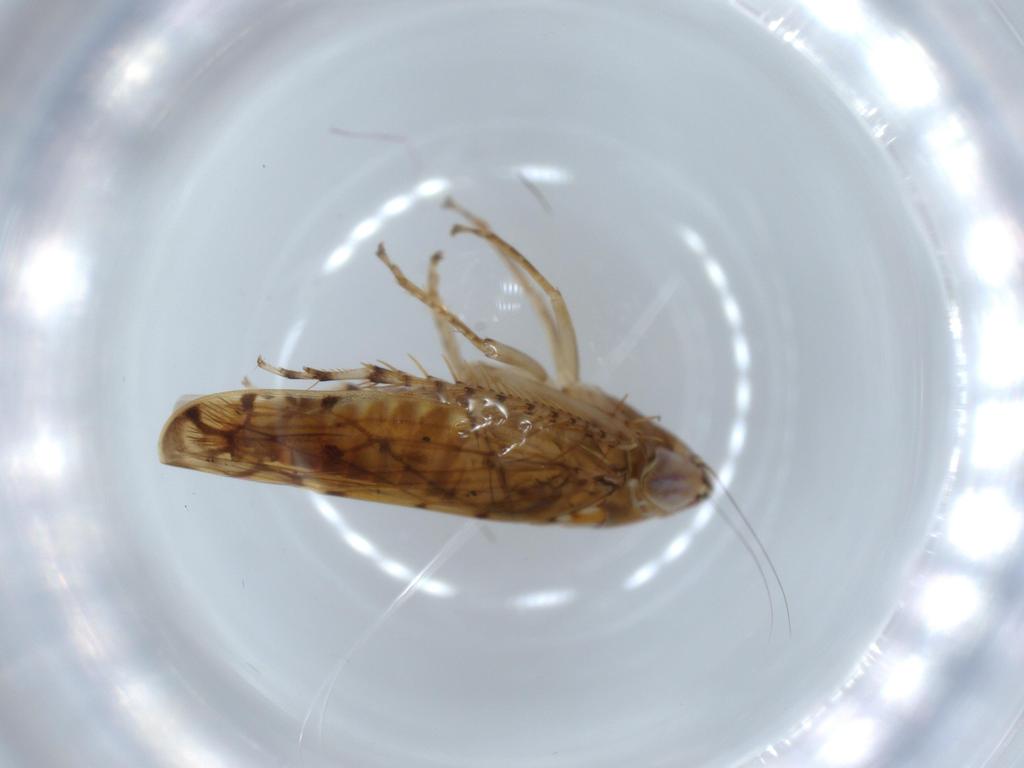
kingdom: Animalia
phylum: Arthropoda
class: Insecta
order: Hemiptera
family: Cicadellidae
